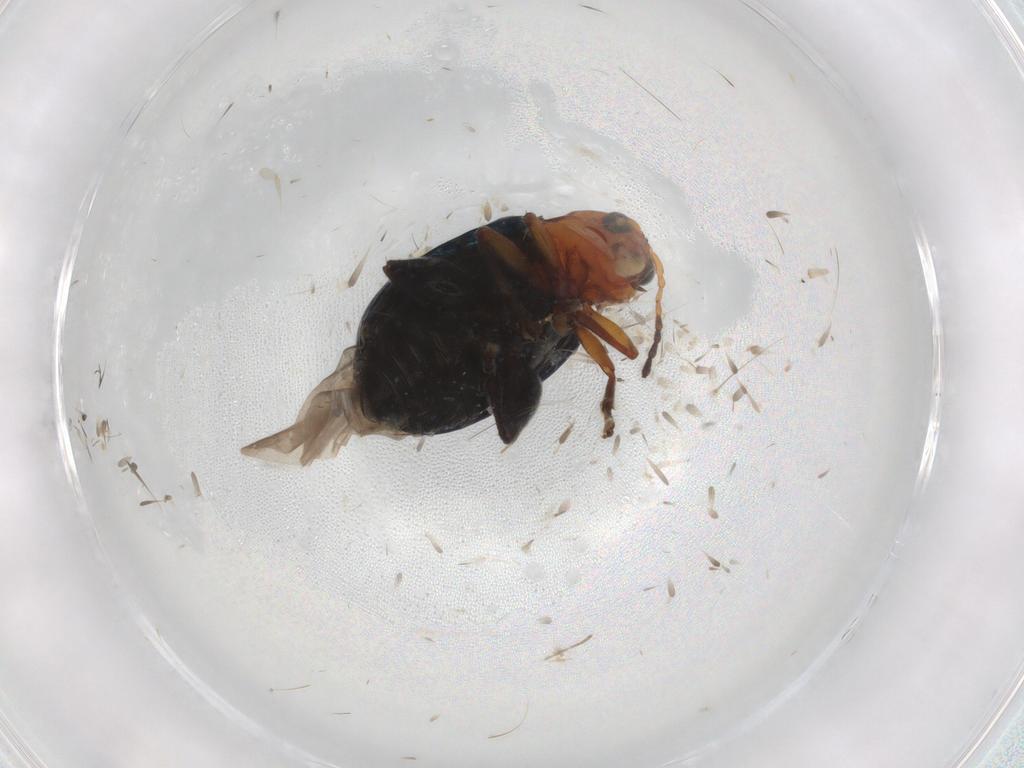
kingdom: Animalia
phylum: Arthropoda
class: Insecta
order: Coleoptera
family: Chrysomelidae
